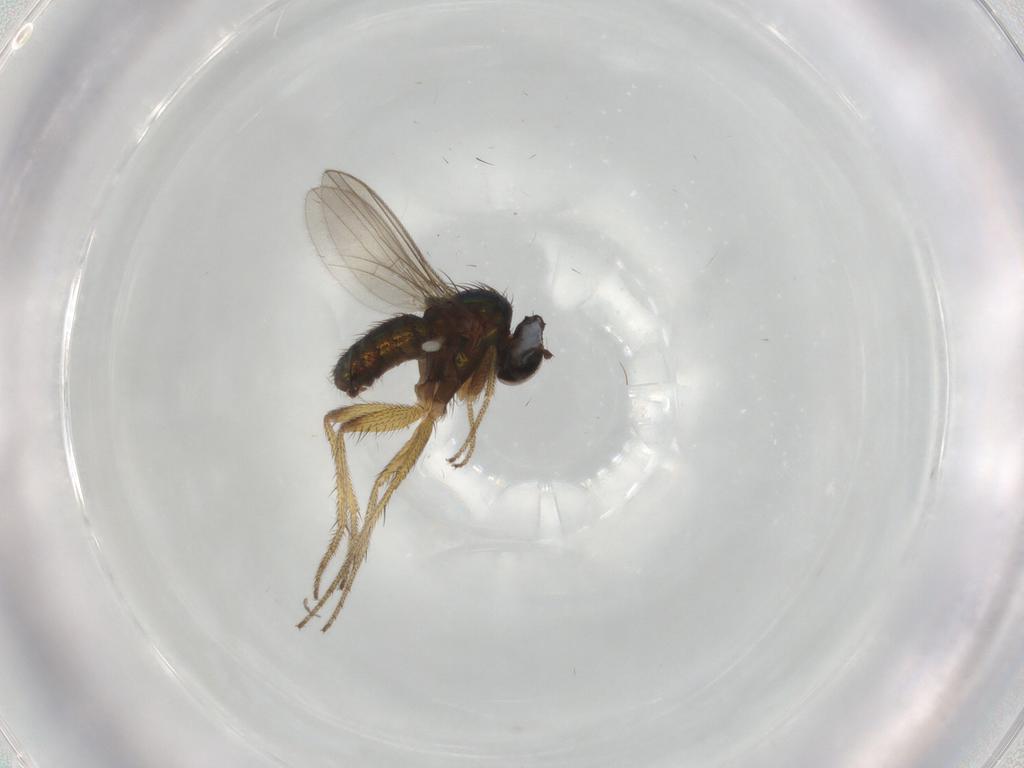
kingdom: Animalia
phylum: Arthropoda
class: Insecta
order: Diptera
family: Dolichopodidae
